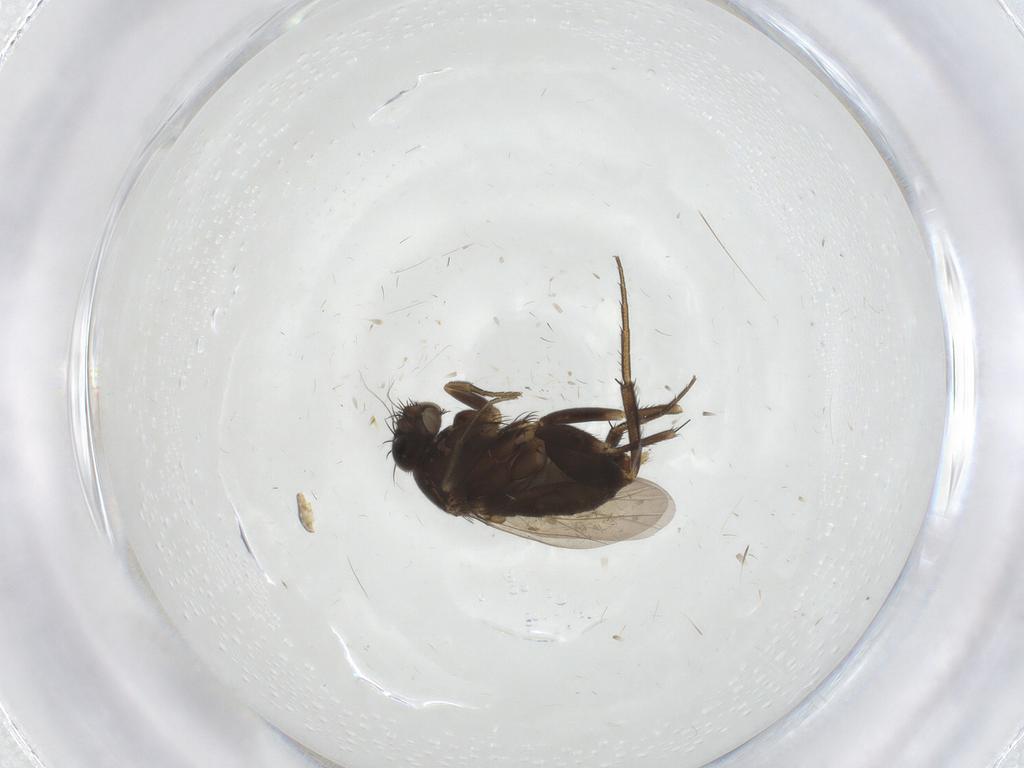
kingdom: Animalia
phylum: Arthropoda
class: Insecta
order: Diptera
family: Phoridae
